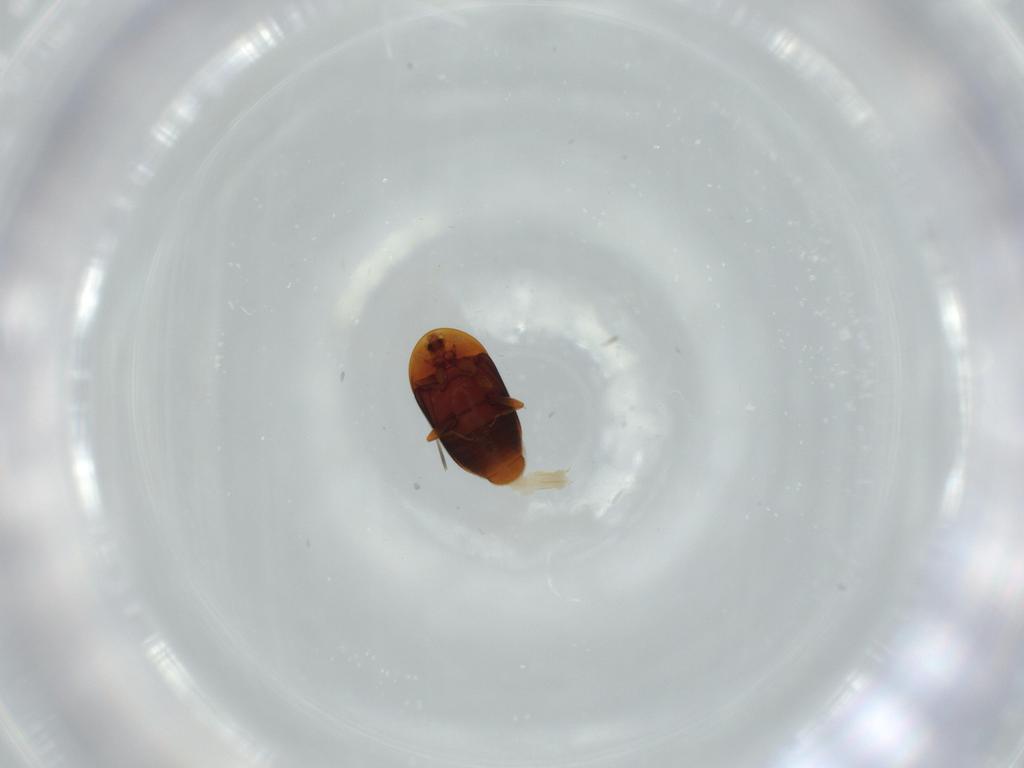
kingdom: Animalia
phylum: Arthropoda
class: Insecta
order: Coleoptera
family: Corylophidae
